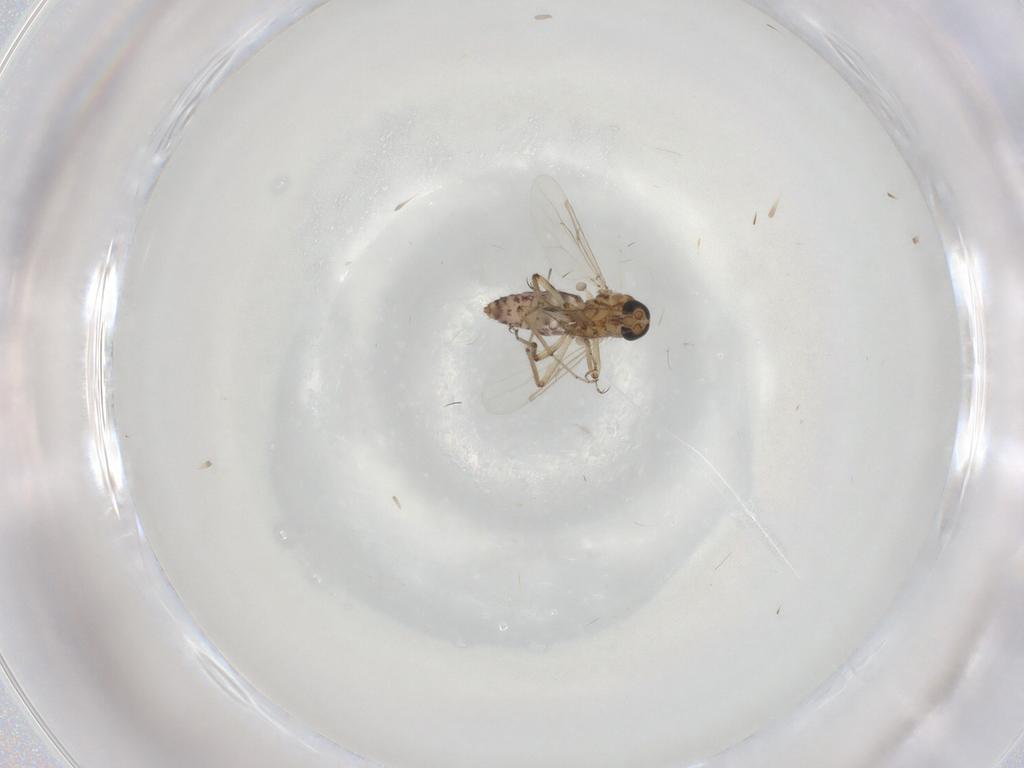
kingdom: Animalia
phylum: Arthropoda
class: Insecta
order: Diptera
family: Ceratopogonidae
